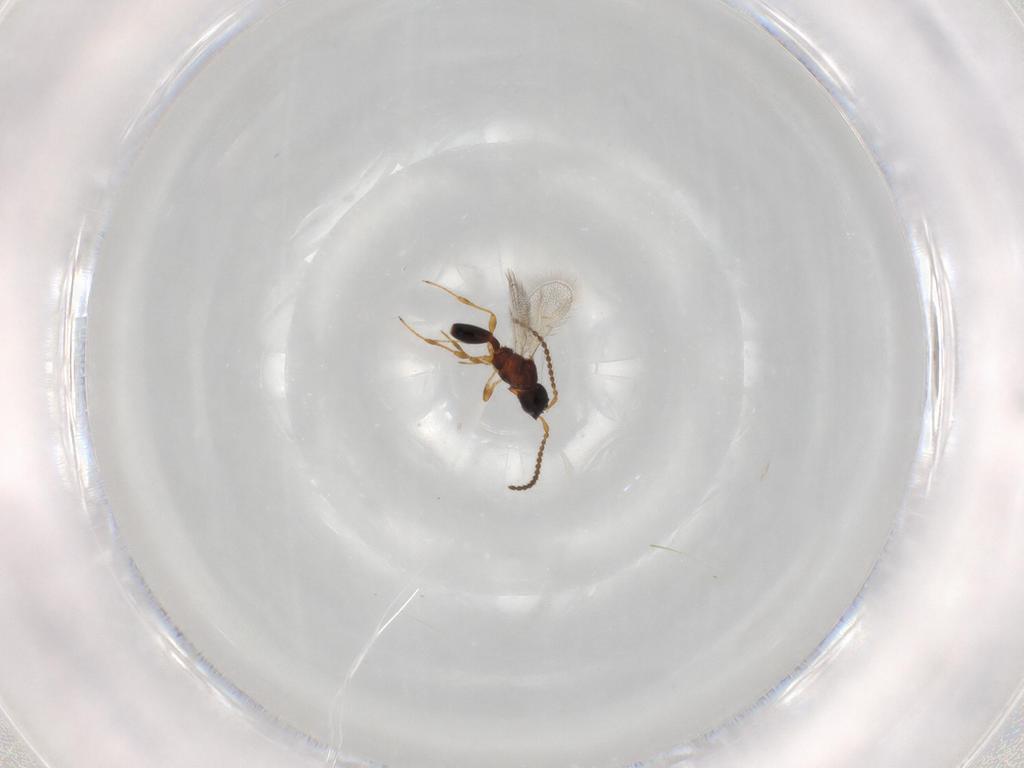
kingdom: Animalia
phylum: Arthropoda
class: Insecta
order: Hymenoptera
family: Diapriidae
